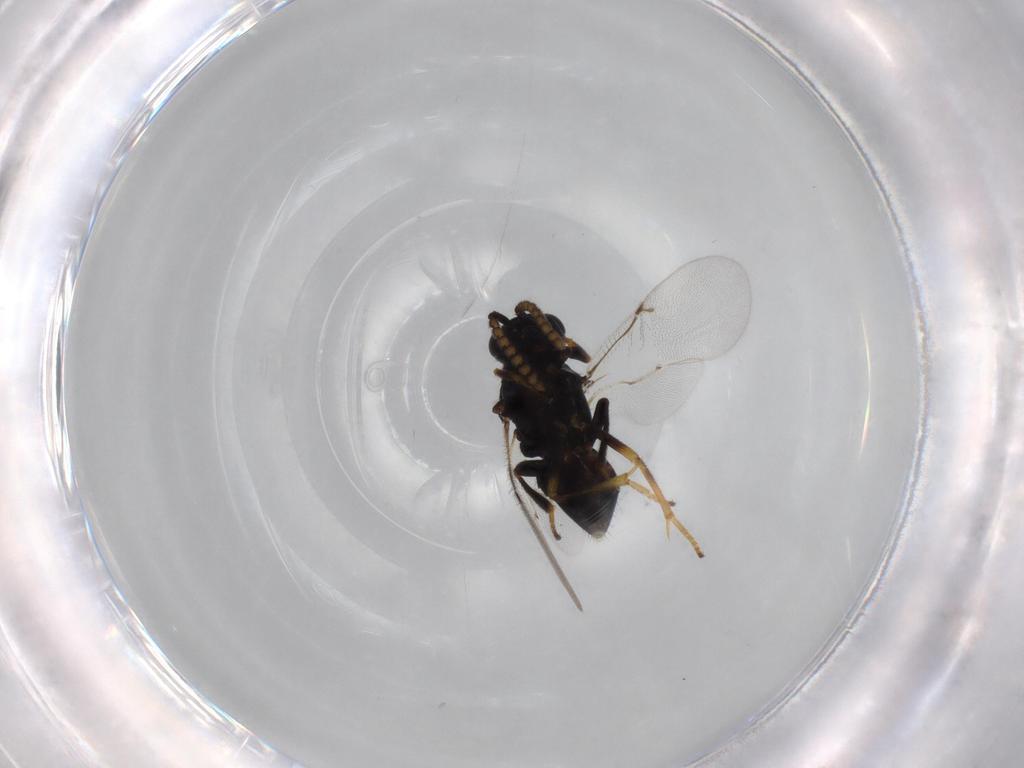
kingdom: Animalia
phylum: Arthropoda
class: Insecta
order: Hymenoptera
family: Encyrtidae
